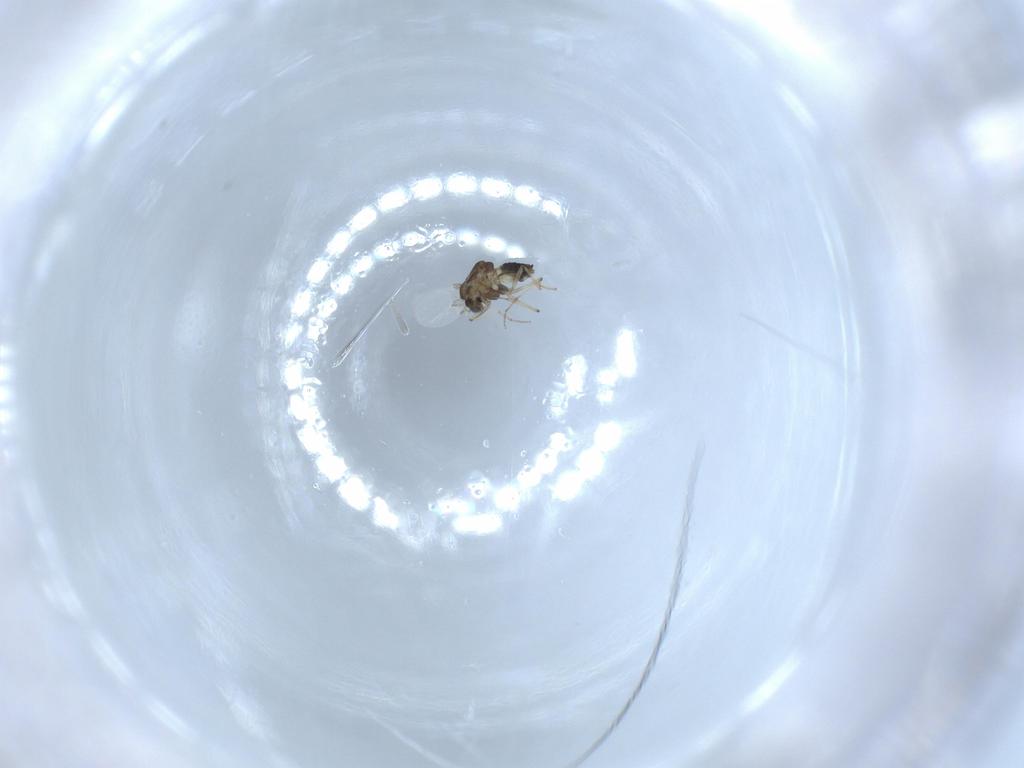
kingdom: Animalia
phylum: Arthropoda
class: Insecta
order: Diptera
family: Chironomidae
